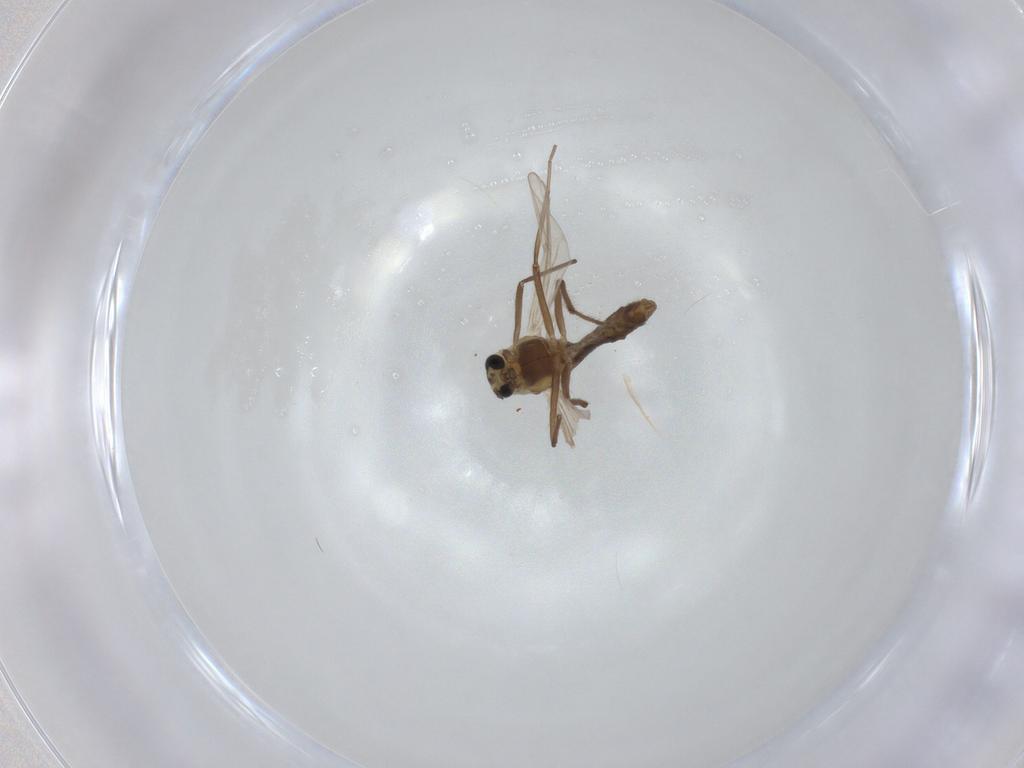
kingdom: Animalia
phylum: Arthropoda
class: Insecta
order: Diptera
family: Chironomidae
